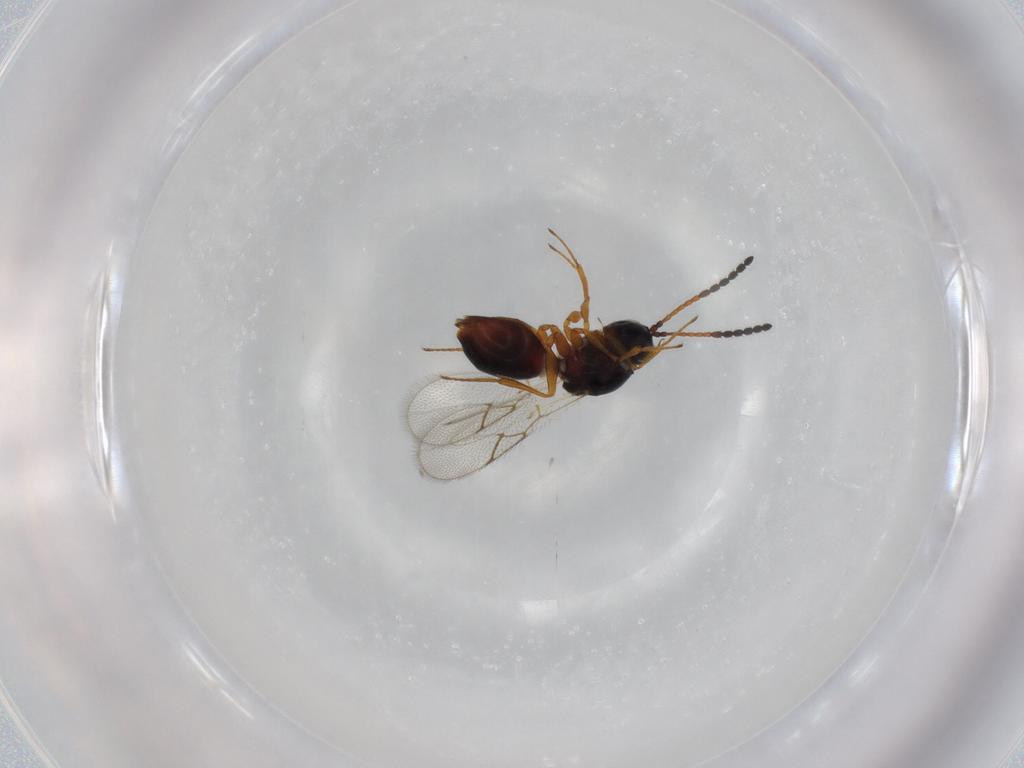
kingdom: Animalia
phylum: Arthropoda
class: Insecta
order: Hymenoptera
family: Figitidae
